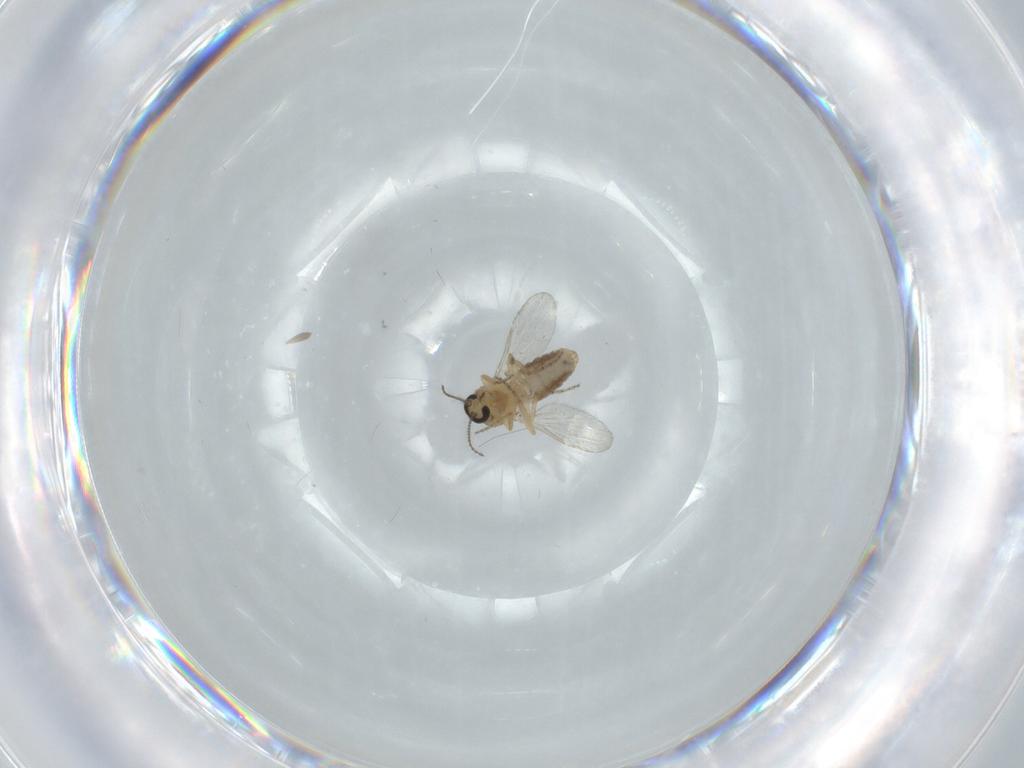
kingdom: Animalia
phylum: Arthropoda
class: Insecta
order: Diptera
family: Ceratopogonidae
